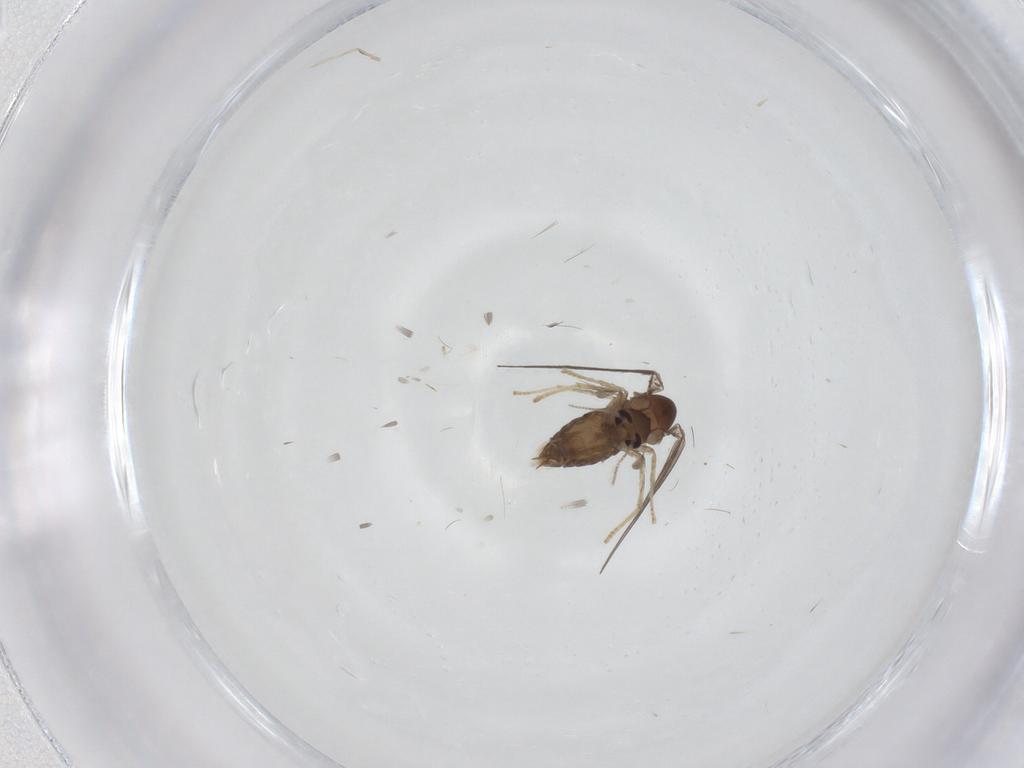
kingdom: Animalia
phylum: Arthropoda
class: Insecta
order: Diptera
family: Psychodidae
